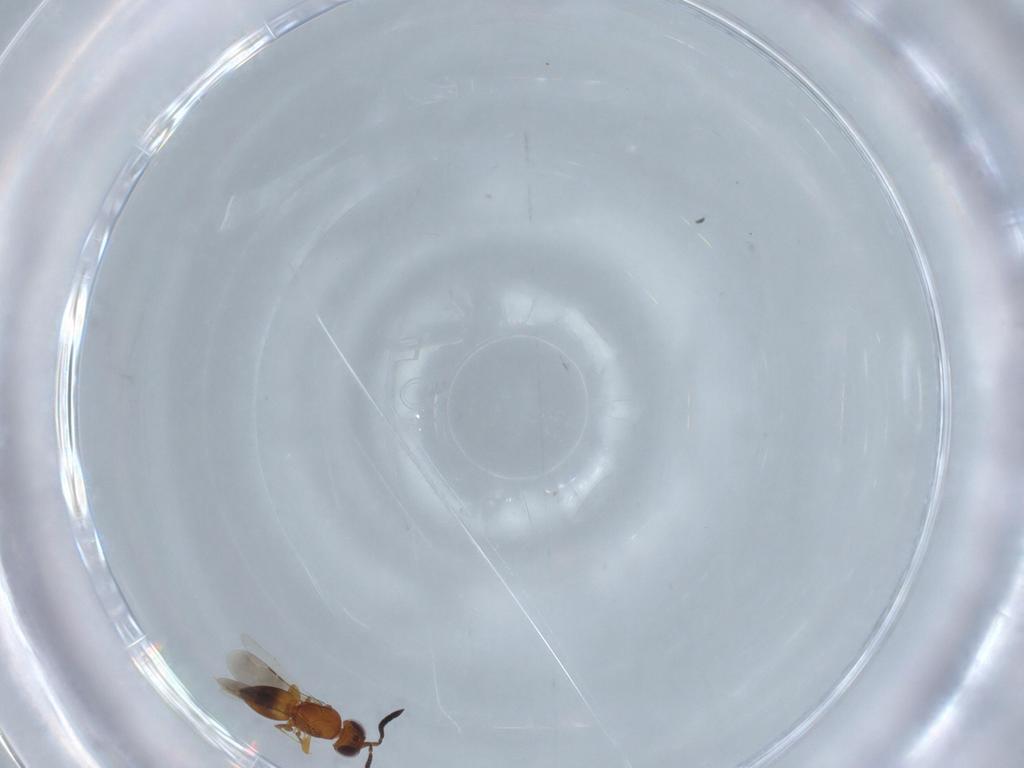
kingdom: Animalia
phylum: Arthropoda
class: Insecta
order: Hymenoptera
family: Ceraphronidae
